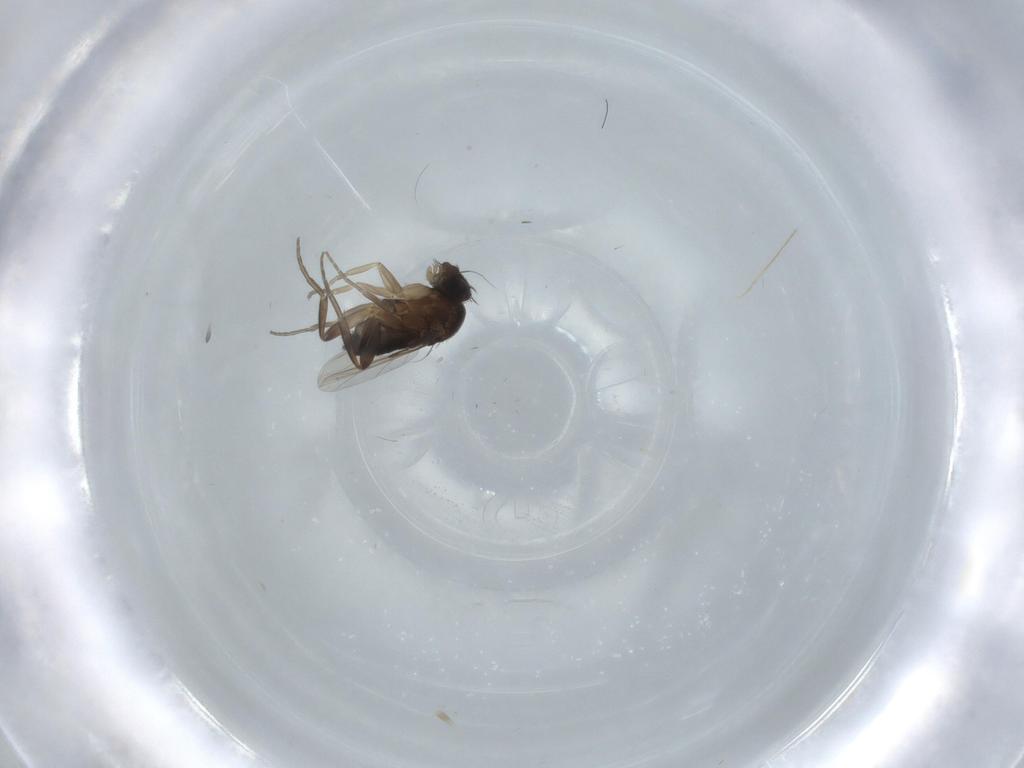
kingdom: Animalia
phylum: Arthropoda
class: Insecta
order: Diptera
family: Phoridae
